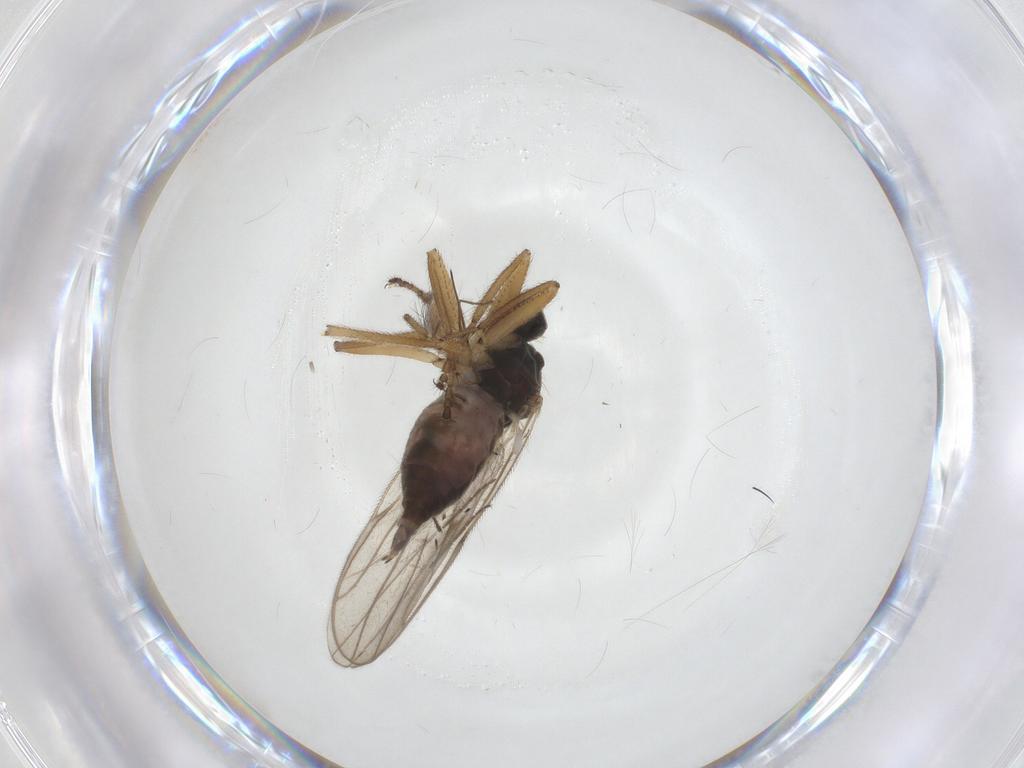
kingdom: Animalia
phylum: Arthropoda
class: Insecta
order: Diptera
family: Hybotidae
